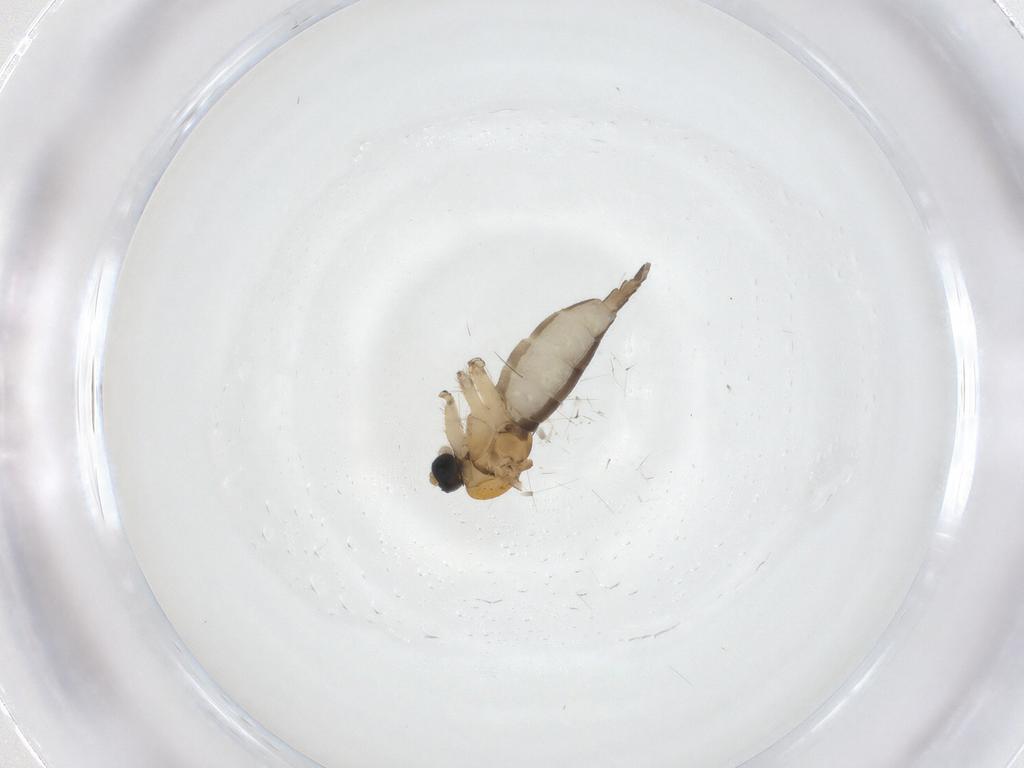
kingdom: Animalia
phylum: Arthropoda
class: Insecta
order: Diptera
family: Sciaridae
